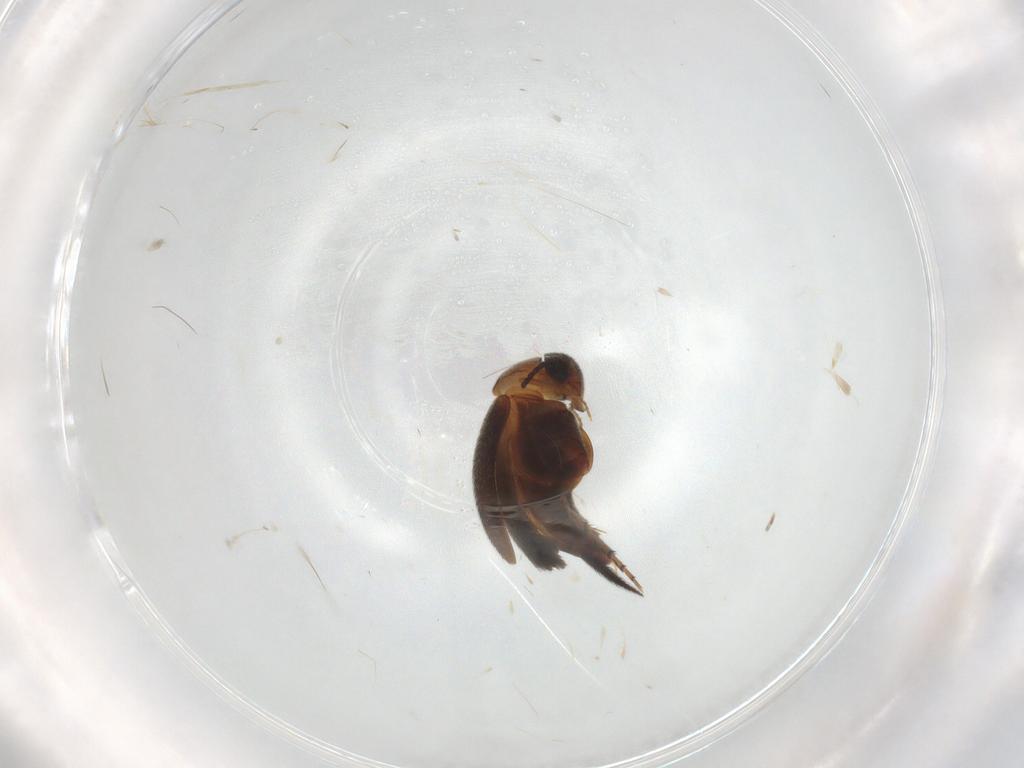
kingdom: Animalia
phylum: Arthropoda
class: Insecta
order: Coleoptera
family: Mordellidae
